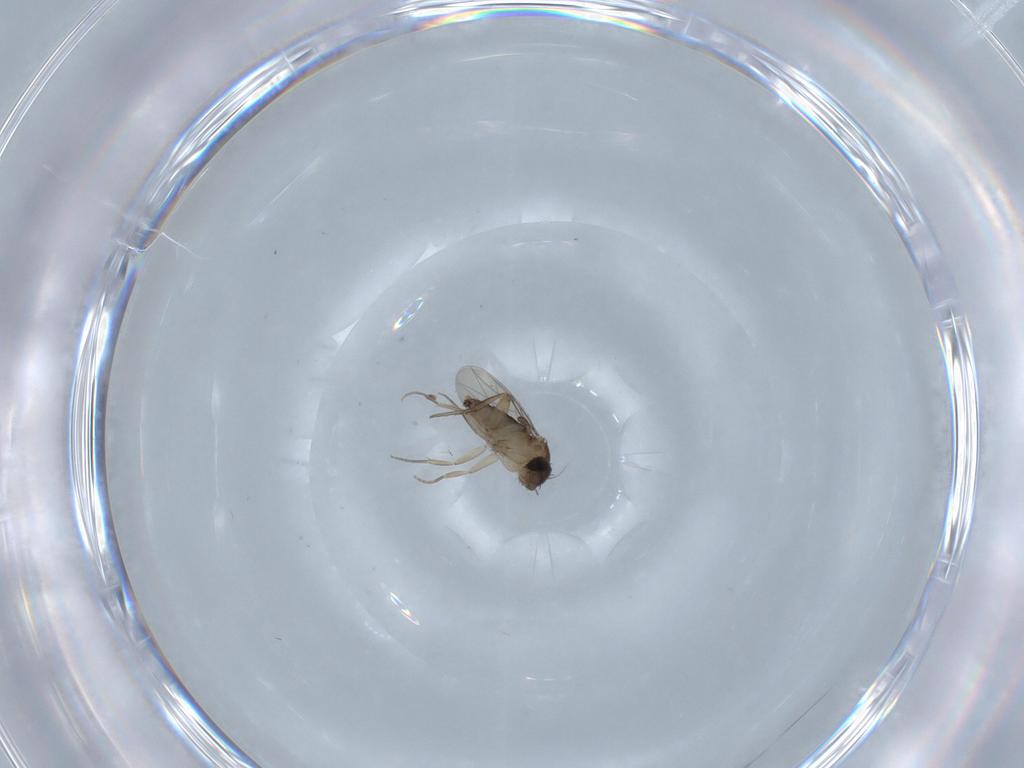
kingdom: Animalia
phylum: Arthropoda
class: Insecta
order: Diptera
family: Phoridae
